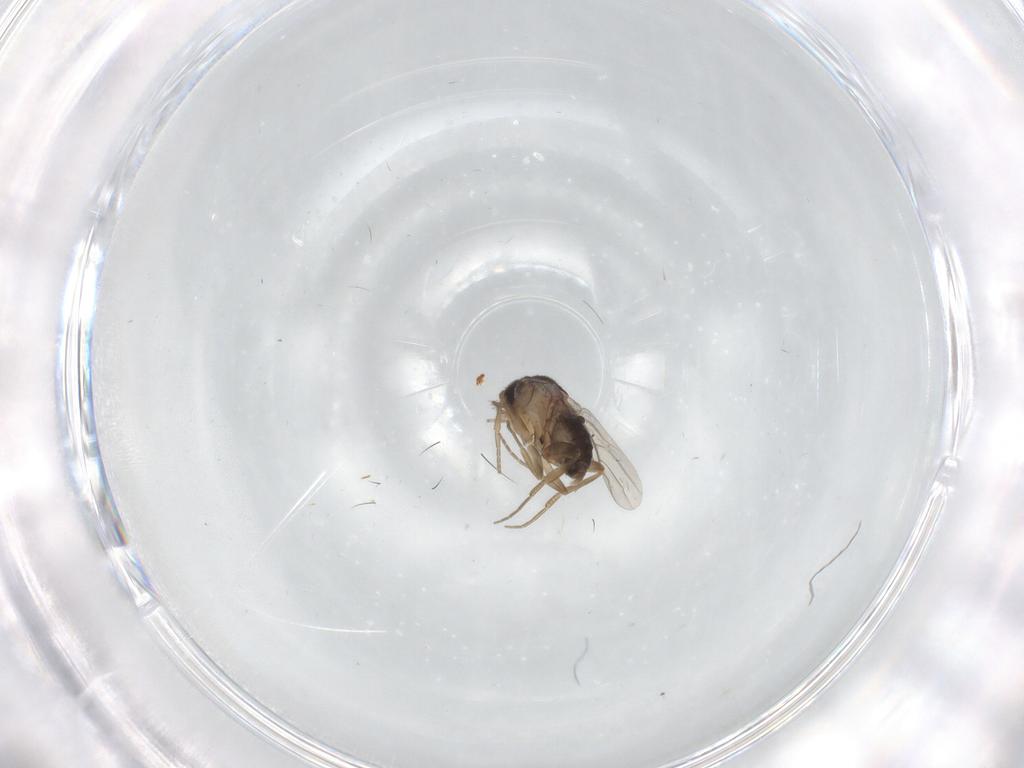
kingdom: Animalia
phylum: Arthropoda
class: Insecta
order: Diptera
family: Phoridae
